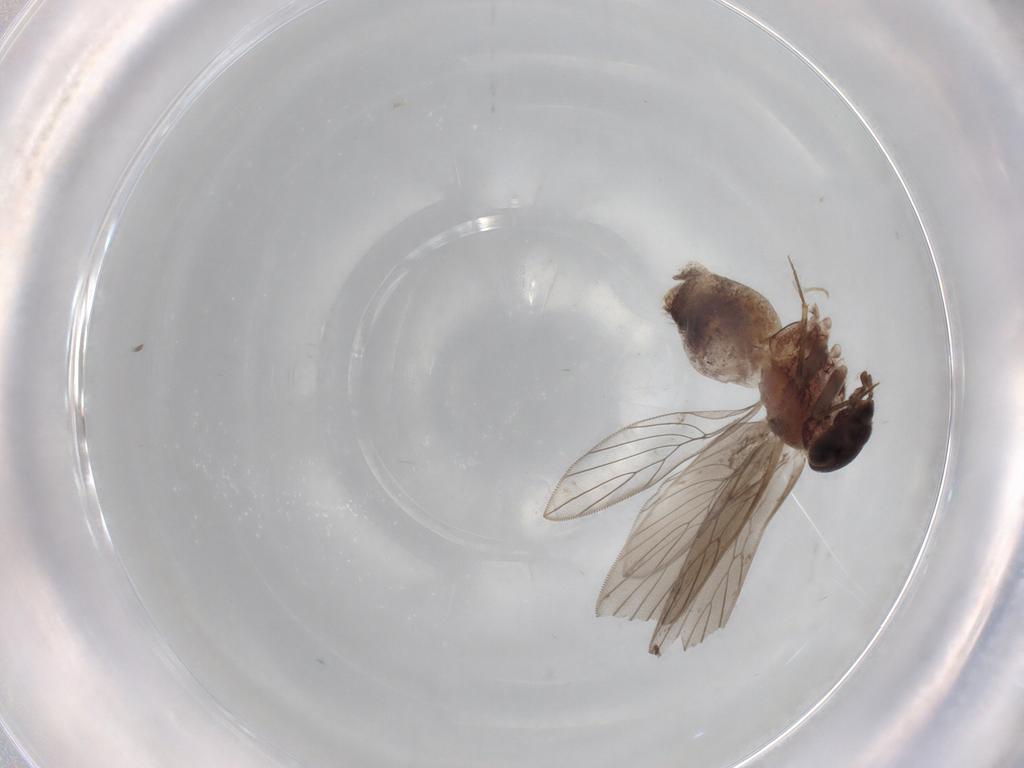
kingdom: Animalia
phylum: Arthropoda
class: Insecta
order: Psocodea
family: Lepidopsocidae
